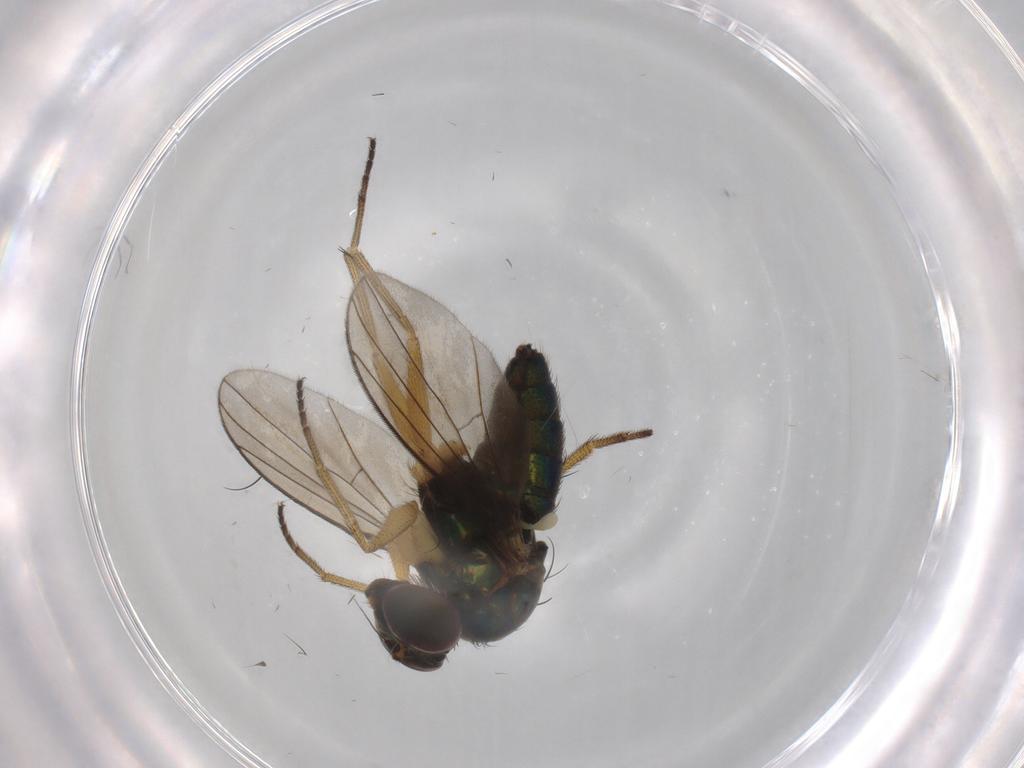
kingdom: Animalia
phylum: Arthropoda
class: Insecta
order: Diptera
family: Dolichopodidae
